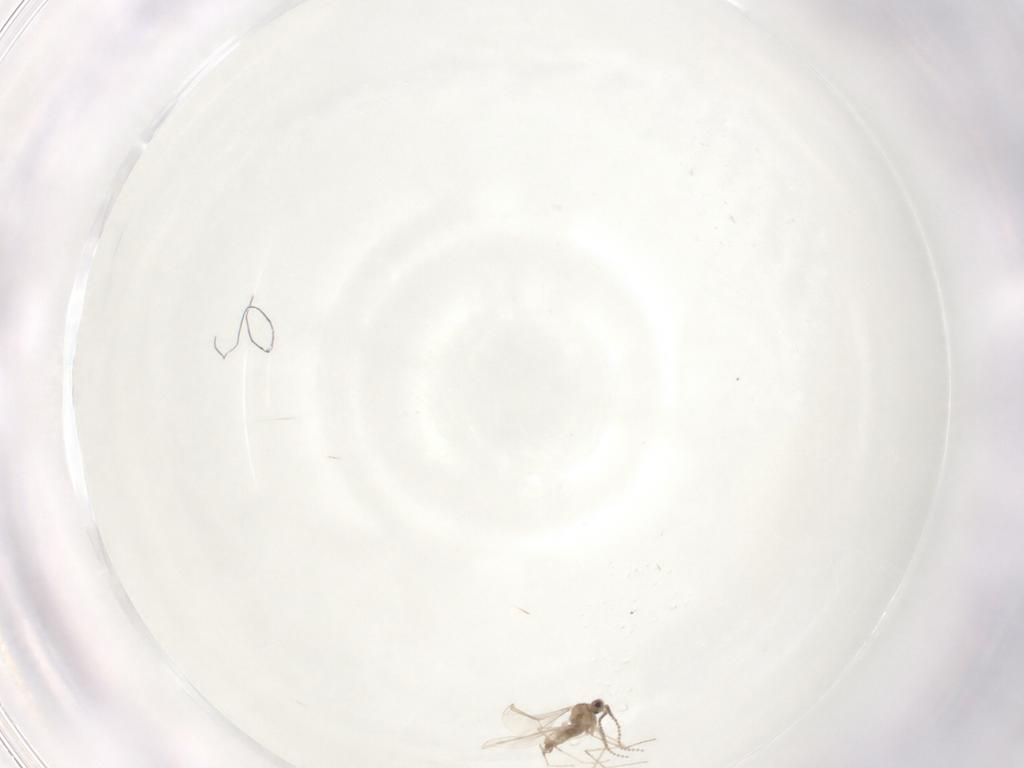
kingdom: Animalia
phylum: Arthropoda
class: Insecta
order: Diptera
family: Cecidomyiidae
